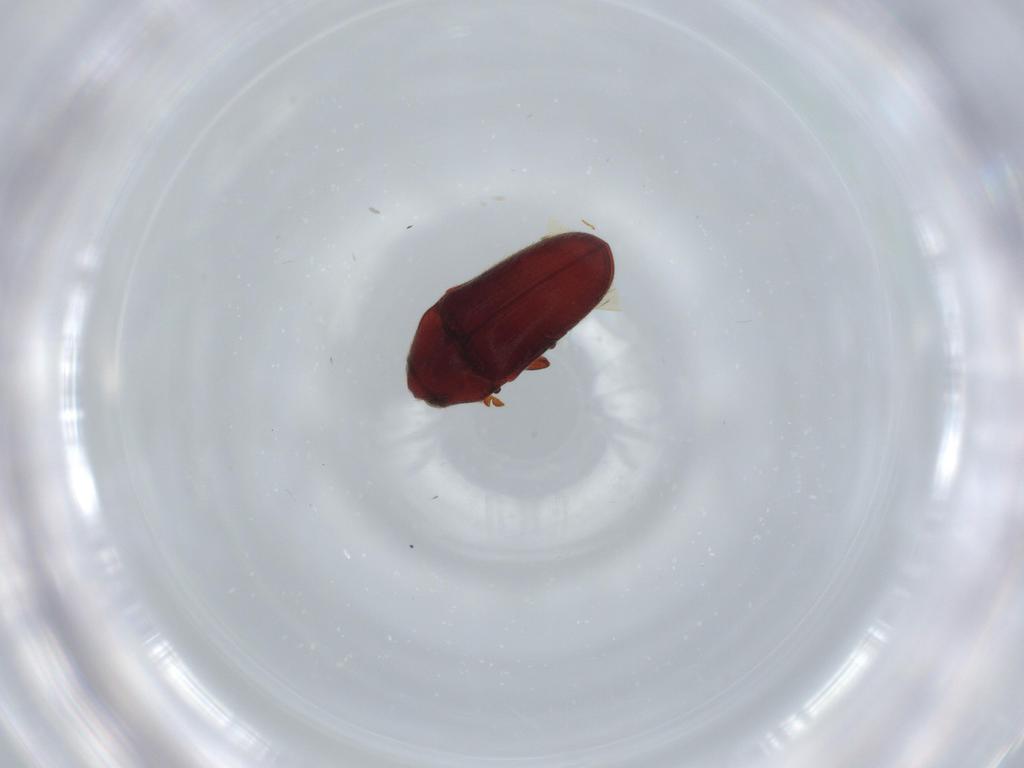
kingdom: Animalia
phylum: Arthropoda
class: Insecta
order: Coleoptera
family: Throscidae
